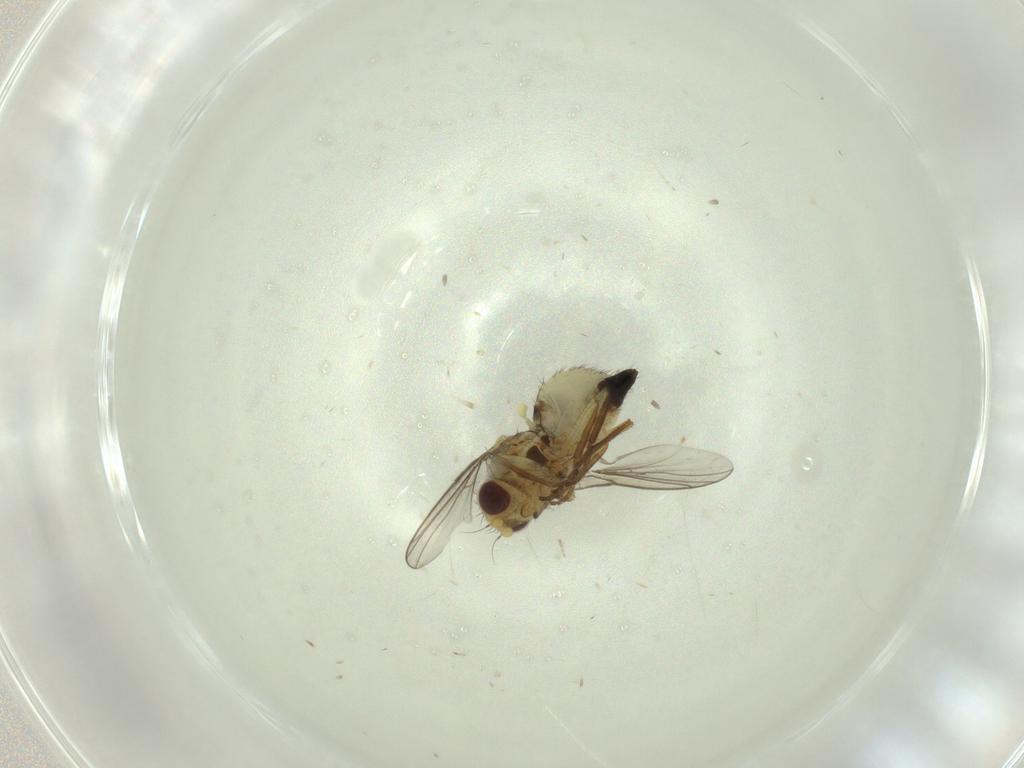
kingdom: Animalia
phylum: Arthropoda
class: Insecta
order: Diptera
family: Agromyzidae
